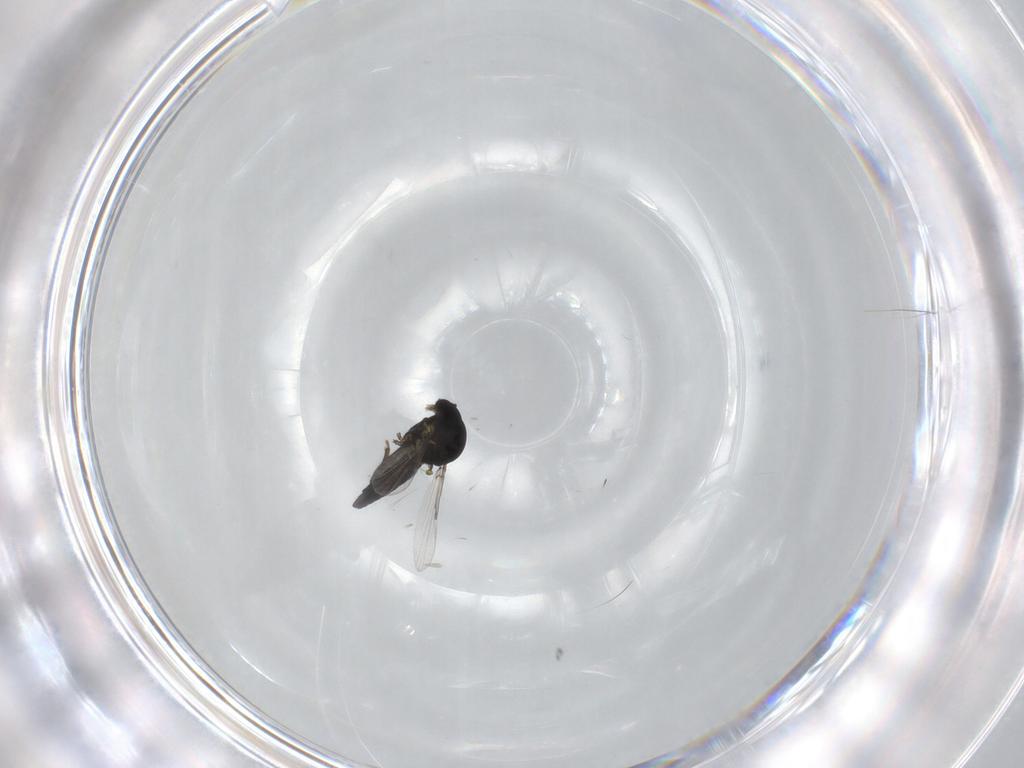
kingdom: Animalia
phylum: Arthropoda
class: Insecta
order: Diptera
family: Ceratopogonidae
